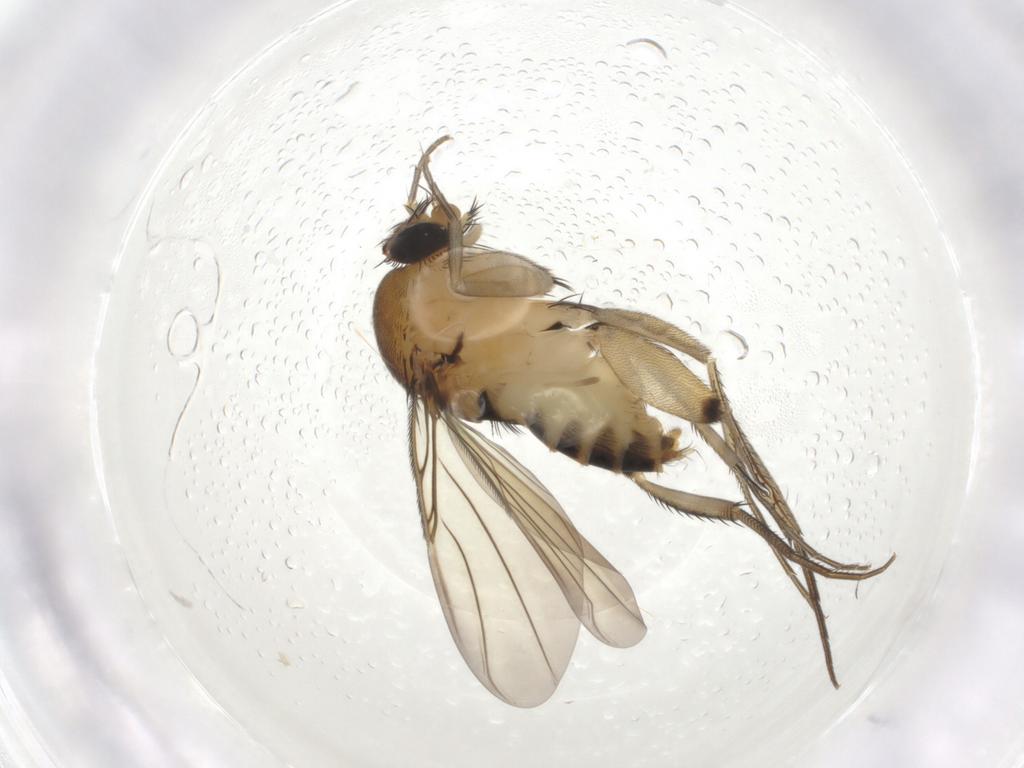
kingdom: Animalia
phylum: Arthropoda
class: Insecta
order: Diptera
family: Phoridae
